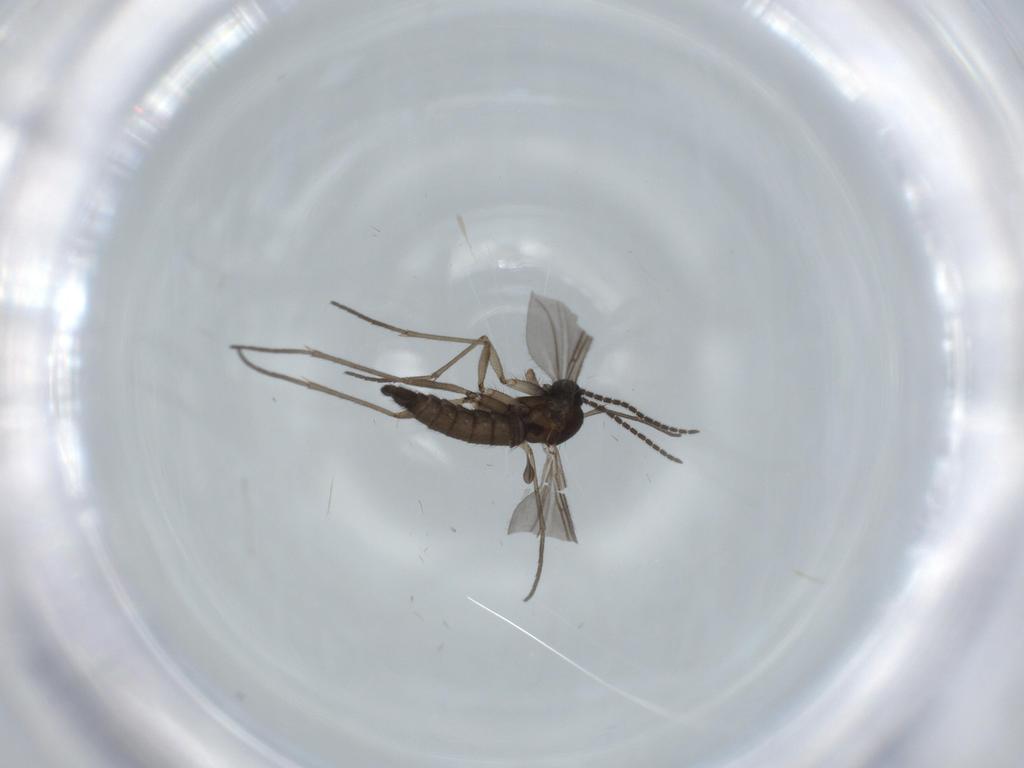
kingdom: Animalia
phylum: Arthropoda
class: Insecta
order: Diptera
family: Sciaridae
